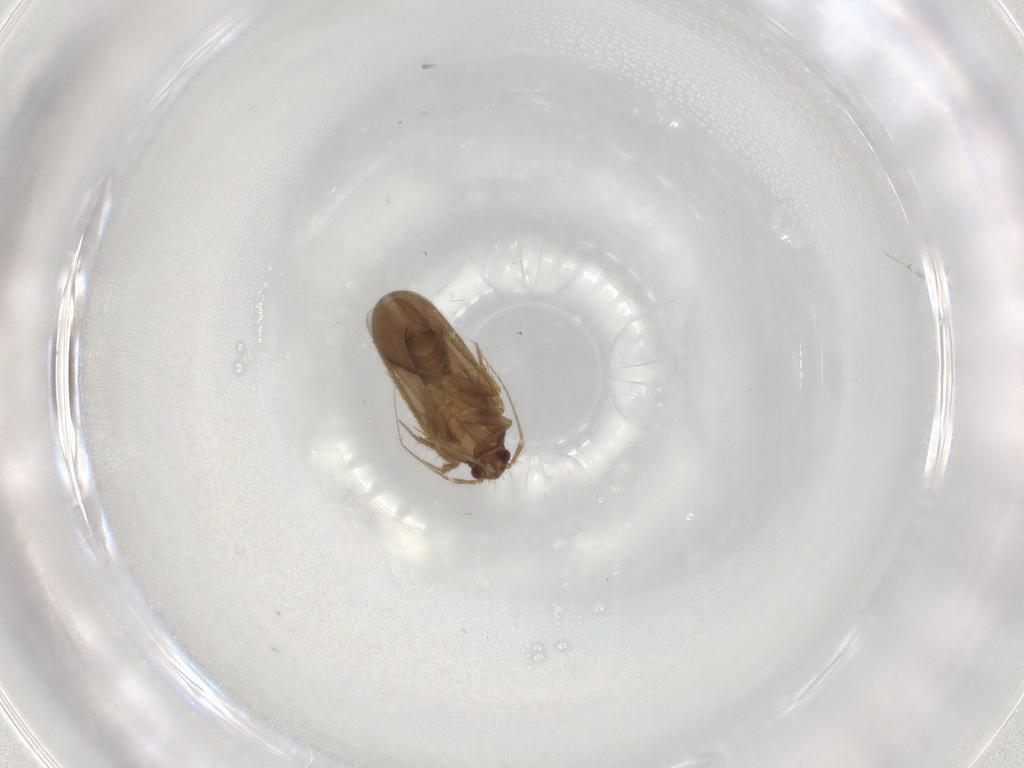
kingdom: Animalia
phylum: Arthropoda
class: Insecta
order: Hemiptera
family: Ceratocombidae
